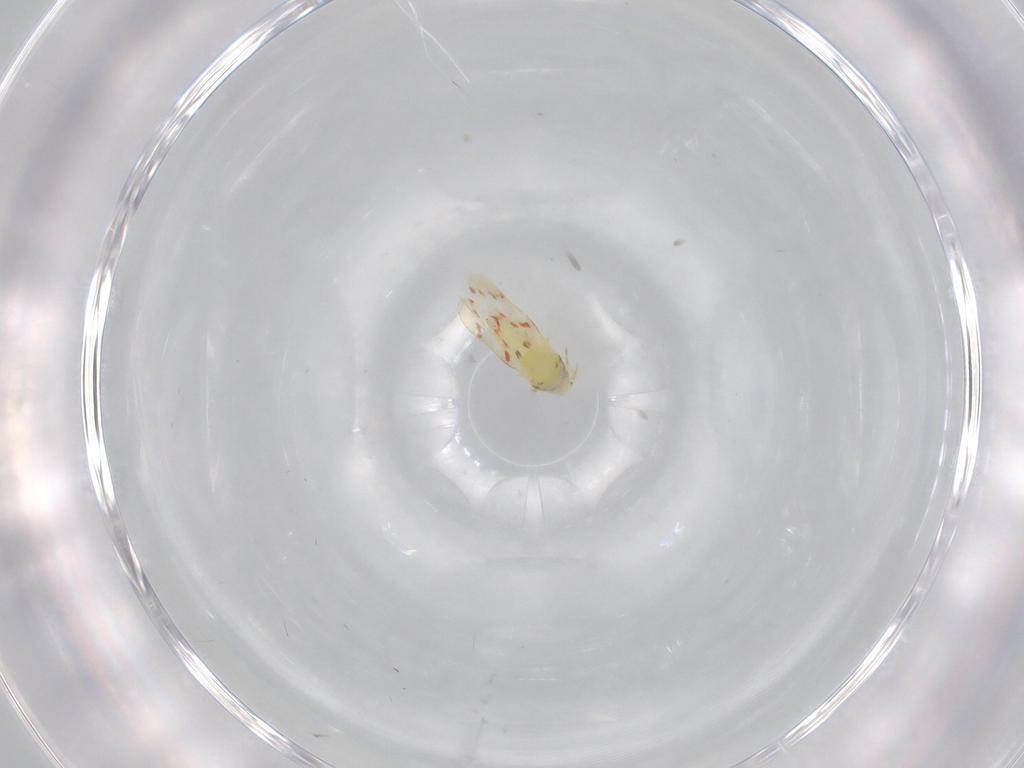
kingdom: Animalia
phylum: Arthropoda
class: Insecta
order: Hemiptera
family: Aleyrodidae
